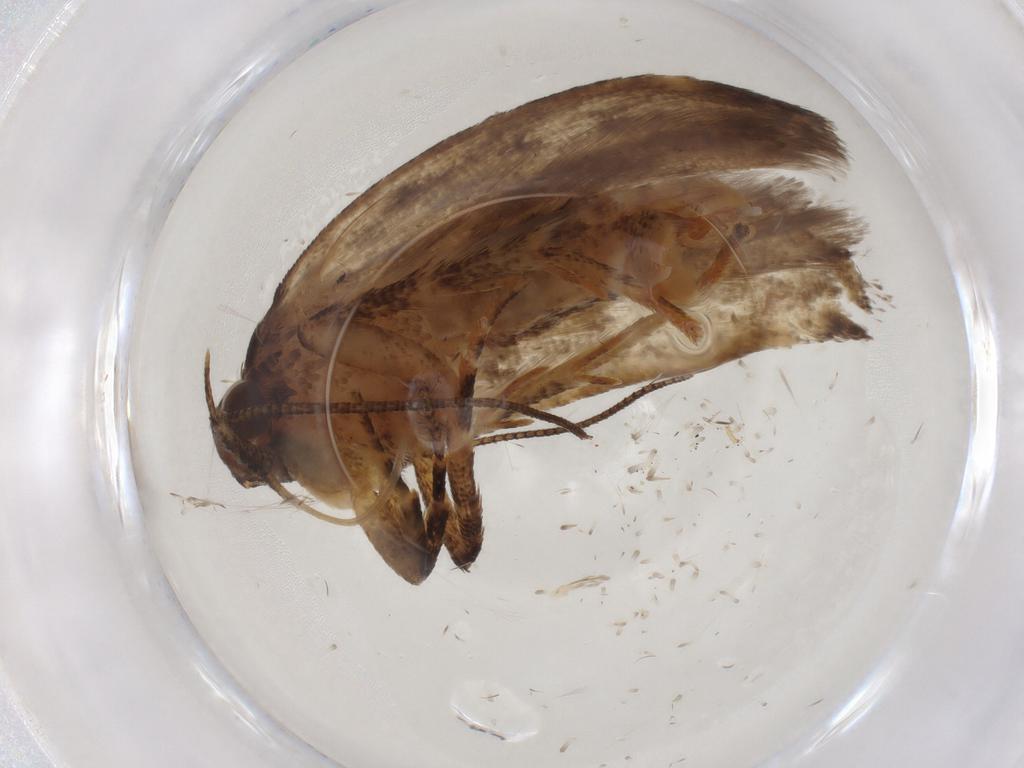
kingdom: Animalia
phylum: Arthropoda
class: Insecta
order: Lepidoptera
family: Gelechiidae
